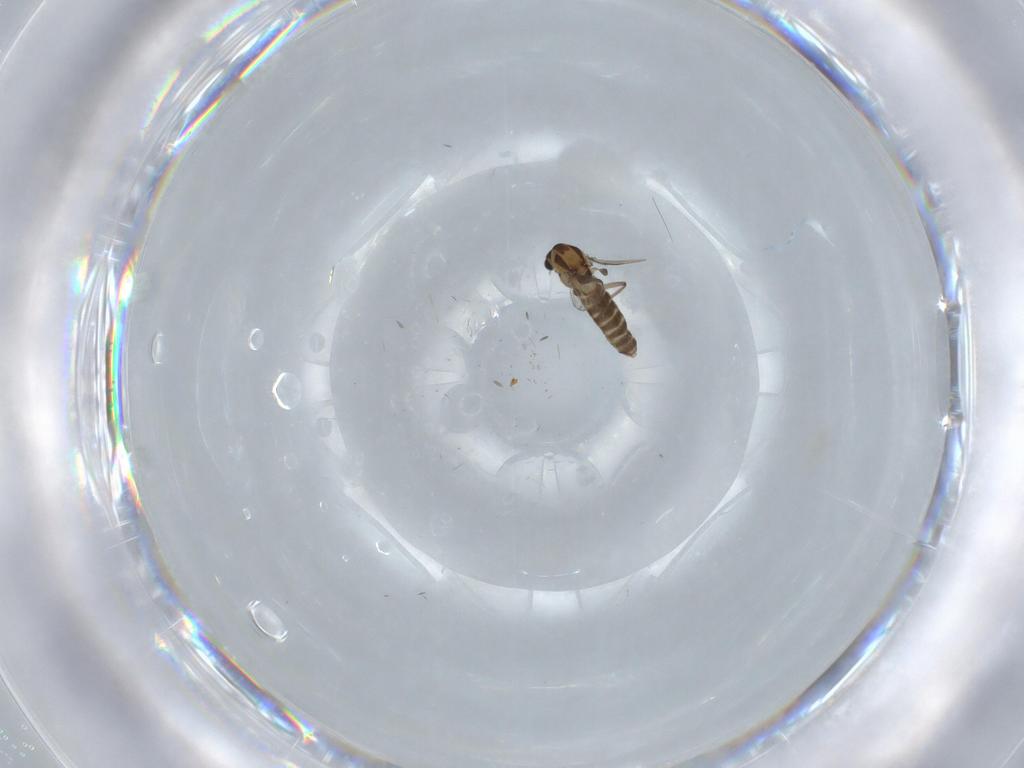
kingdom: Animalia
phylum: Arthropoda
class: Insecta
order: Diptera
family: Chironomidae
